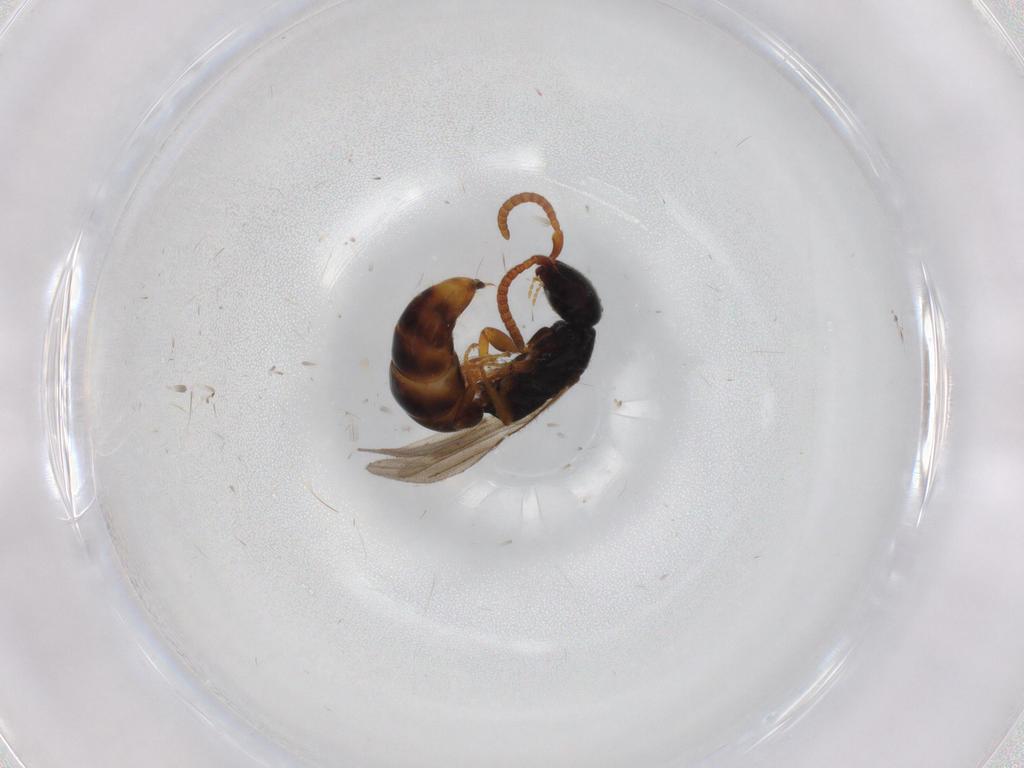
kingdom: Animalia
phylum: Arthropoda
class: Insecta
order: Hymenoptera
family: Bethylidae
